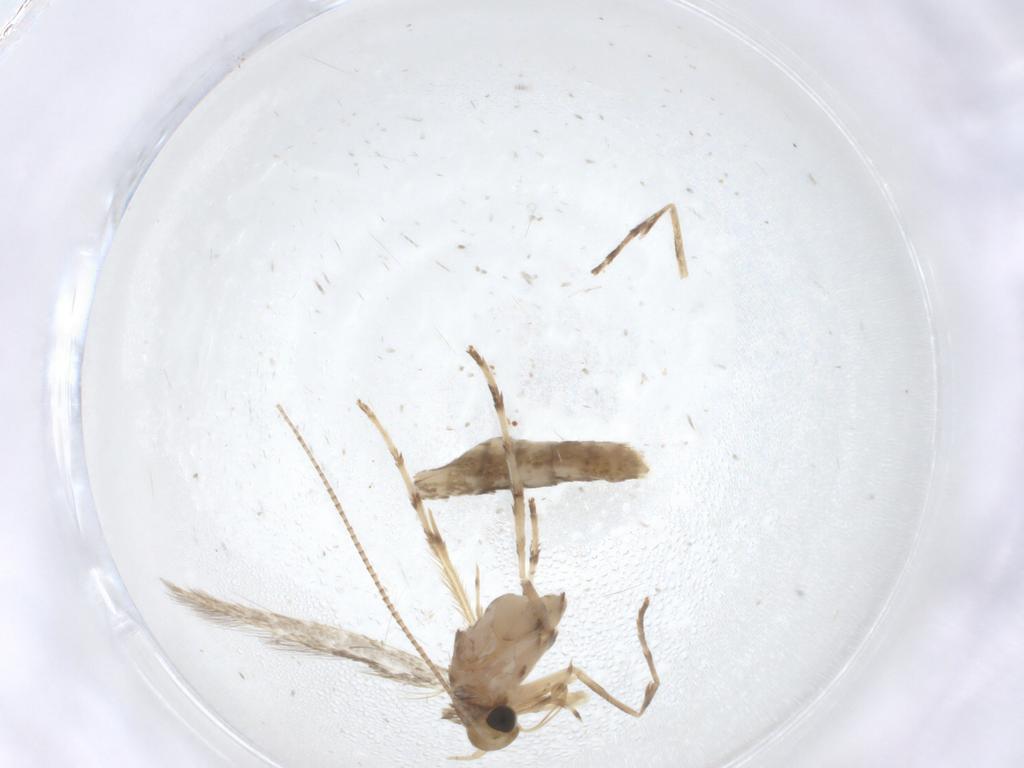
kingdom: Animalia
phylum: Arthropoda
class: Insecta
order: Lepidoptera
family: Gracillariidae
